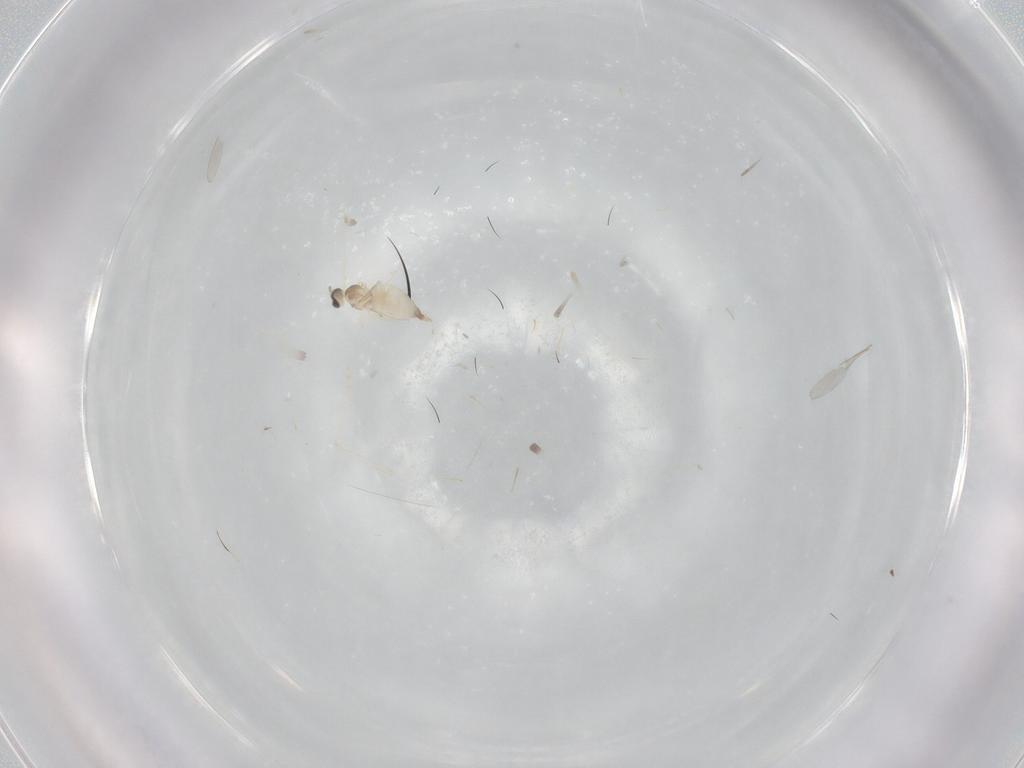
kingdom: Animalia
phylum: Arthropoda
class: Insecta
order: Diptera
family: Cecidomyiidae
